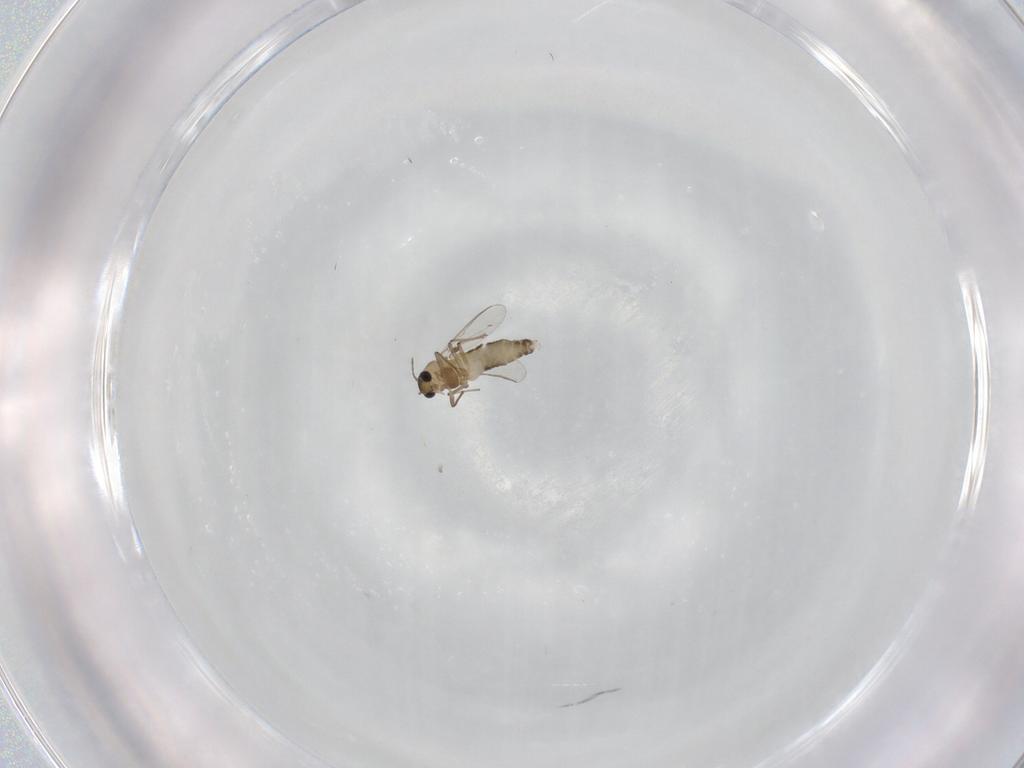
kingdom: Animalia
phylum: Arthropoda
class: Insecta
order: Diptera
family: Chironomidae
